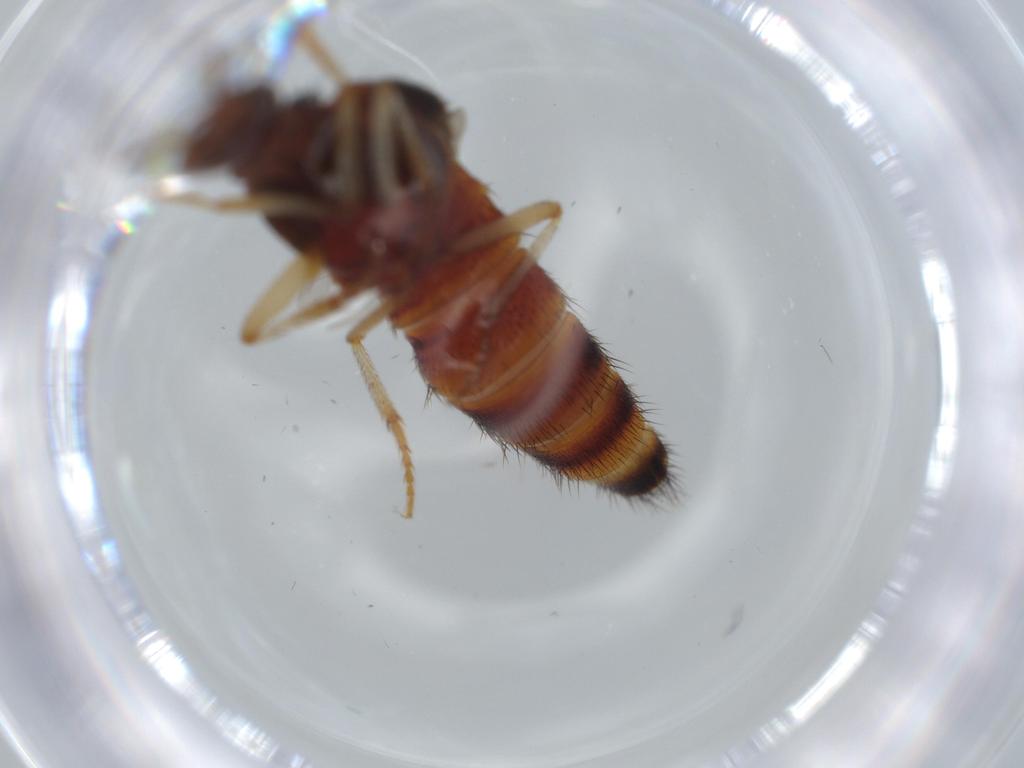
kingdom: Animalia
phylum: Arthropoda
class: Insecta
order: Coleoptera
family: Staphylinidae
